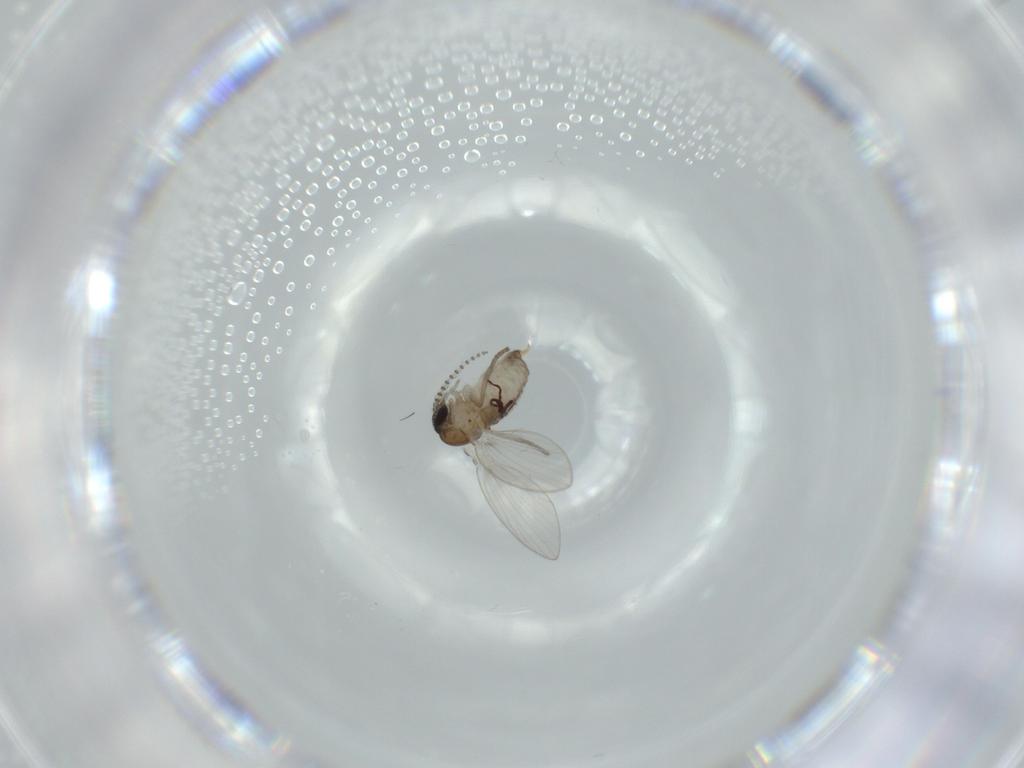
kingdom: Animalia
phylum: Arthropoda
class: Insecta
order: Diptera
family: Psychodidae
